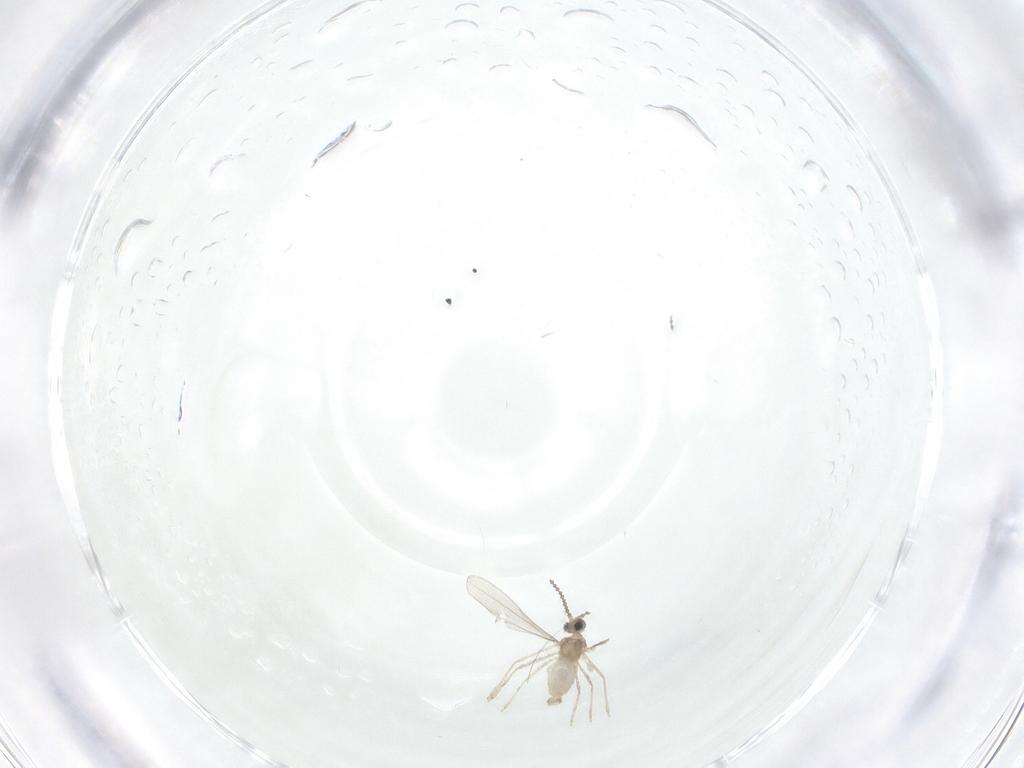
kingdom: Animalia
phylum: Arthropoda
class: Insecta
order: Diptera
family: Cecidomyiidae
